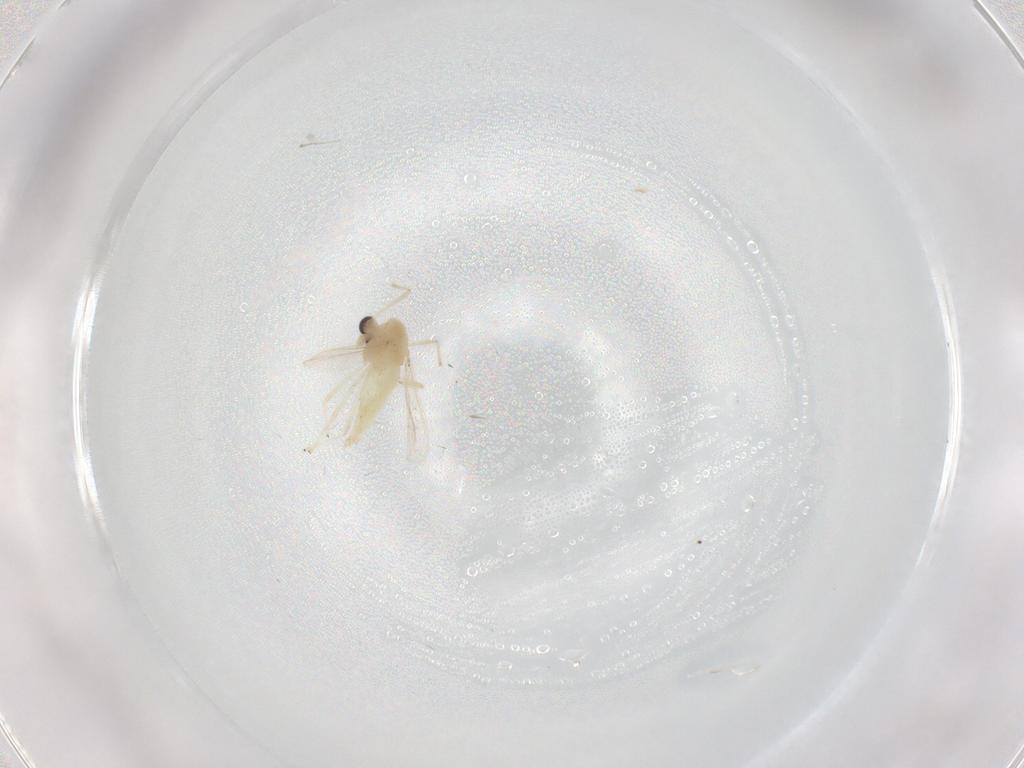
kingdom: Animalia
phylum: Arthropoda
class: Insecta
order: Diptera
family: Chironomidae
